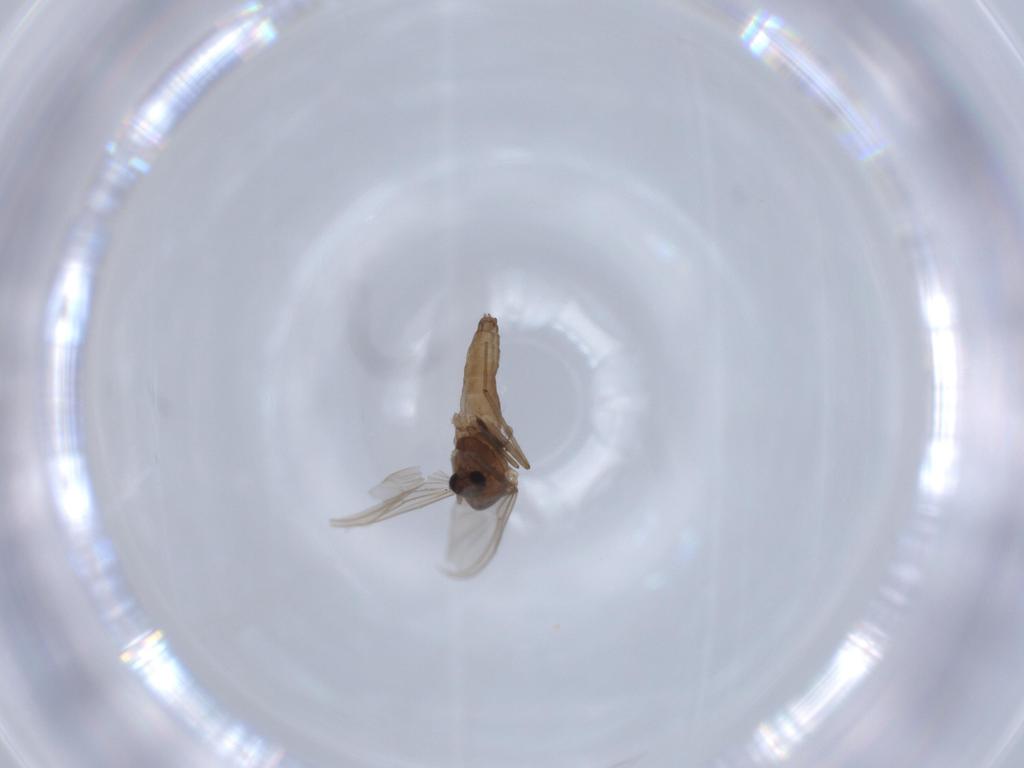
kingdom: Animalia
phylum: Arthropoda
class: Insecta
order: Diptera
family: Chironomidae
